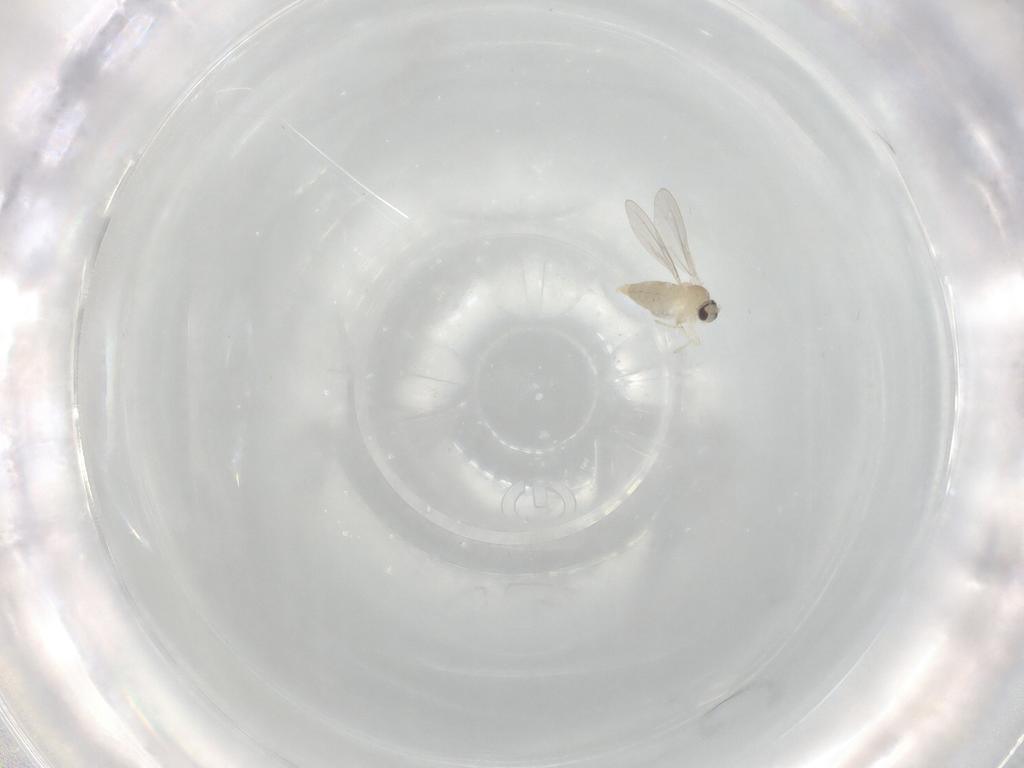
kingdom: Animalia
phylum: Arthropoda
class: Insecta
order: Diptera
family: Cecidomyiidae
